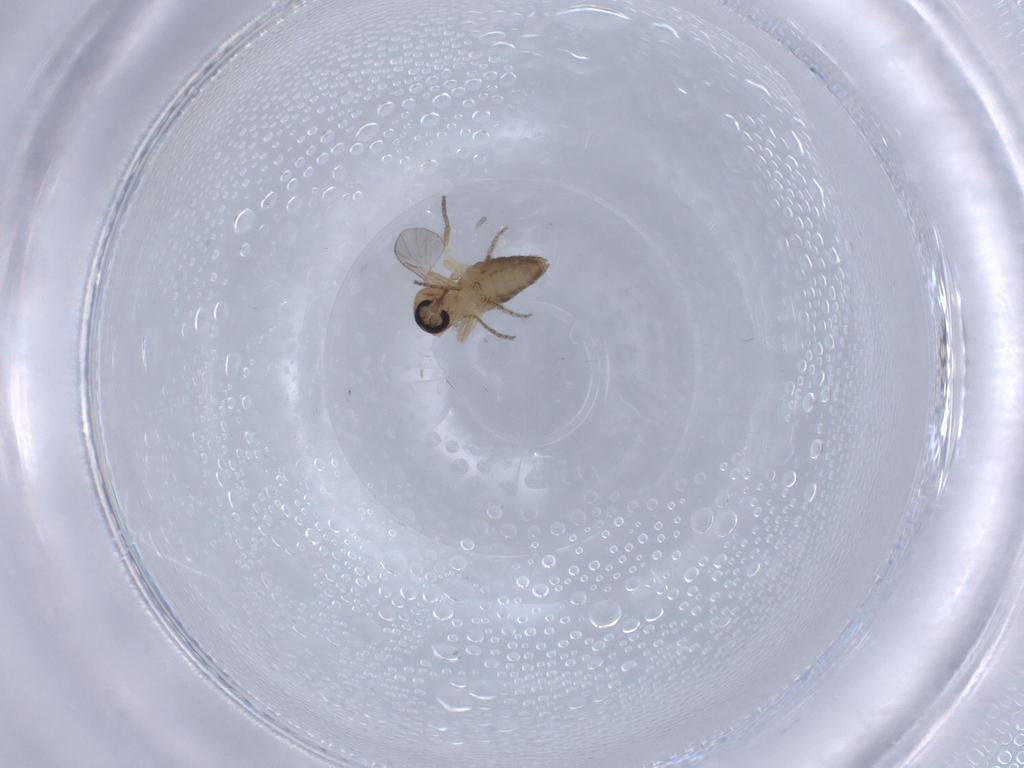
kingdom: Animalia
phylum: Arthropoda
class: Insecta
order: Diptera
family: Ceratopogonidae
